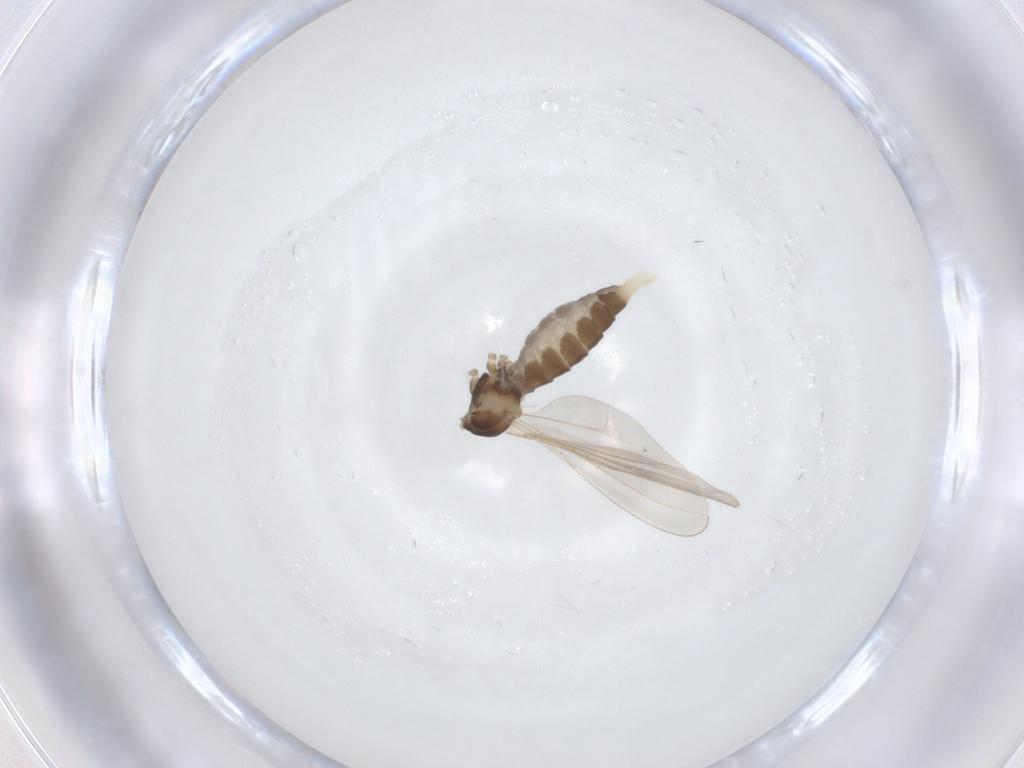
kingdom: Animalia
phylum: Arthropoda
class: Insecta
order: Diptera
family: Cecidomyiidae
